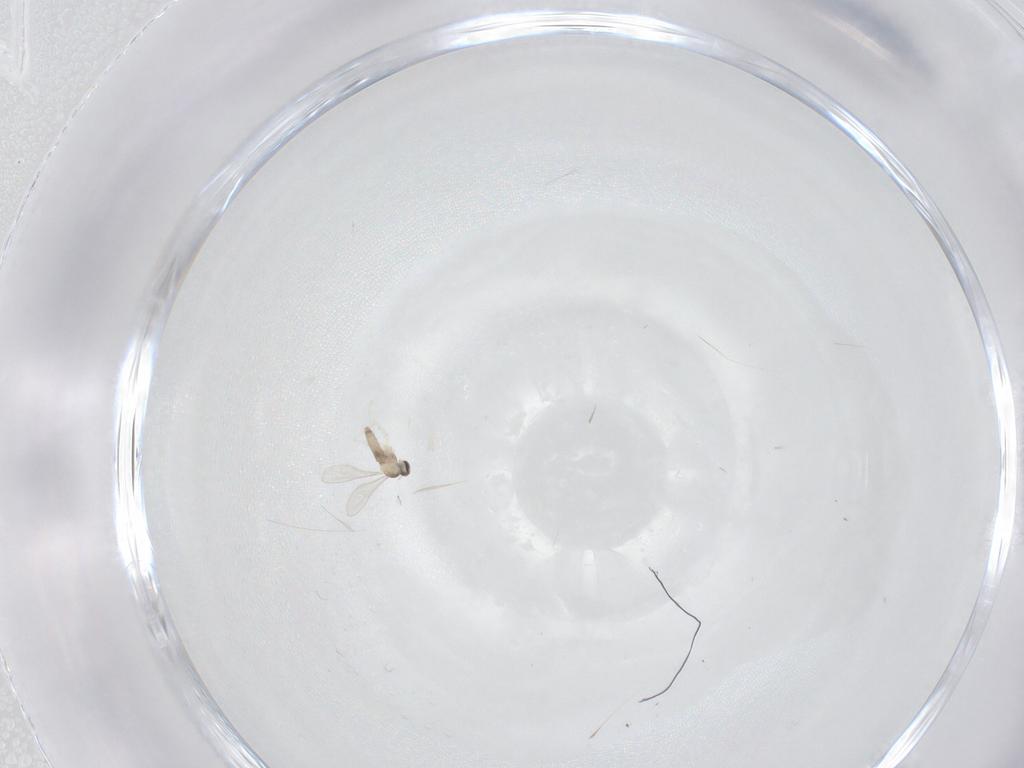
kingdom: Animalia
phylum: Arthropoda
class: Insecta
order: Diptera
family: Cecidomyiidae
